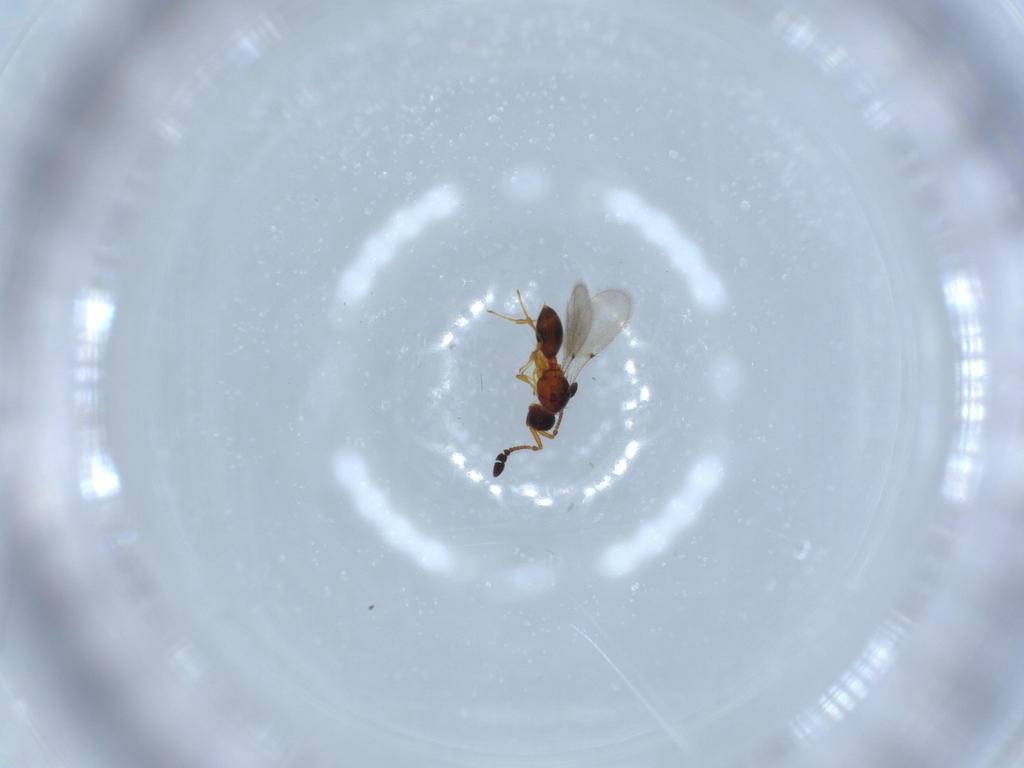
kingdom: Animalia
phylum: Arthropoda
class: Insecta
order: Hymenoptera
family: Diapriidae
